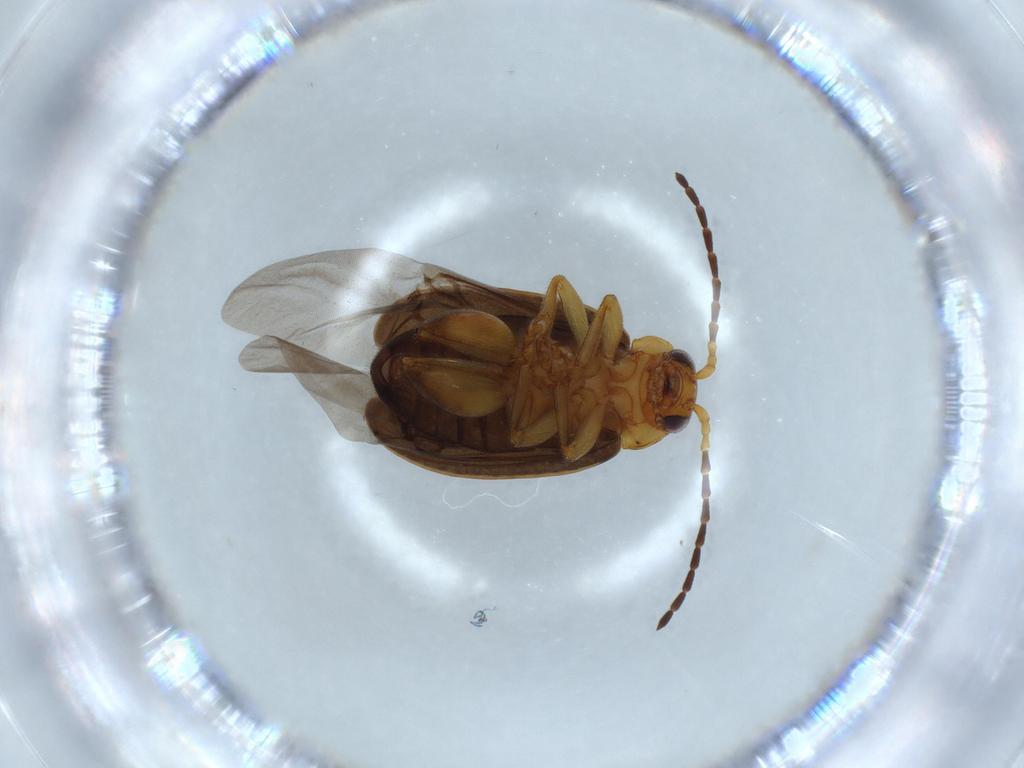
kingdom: Animalia
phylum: Arthropoda
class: Insecta
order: Coleoptera
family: Chrysomelidae
